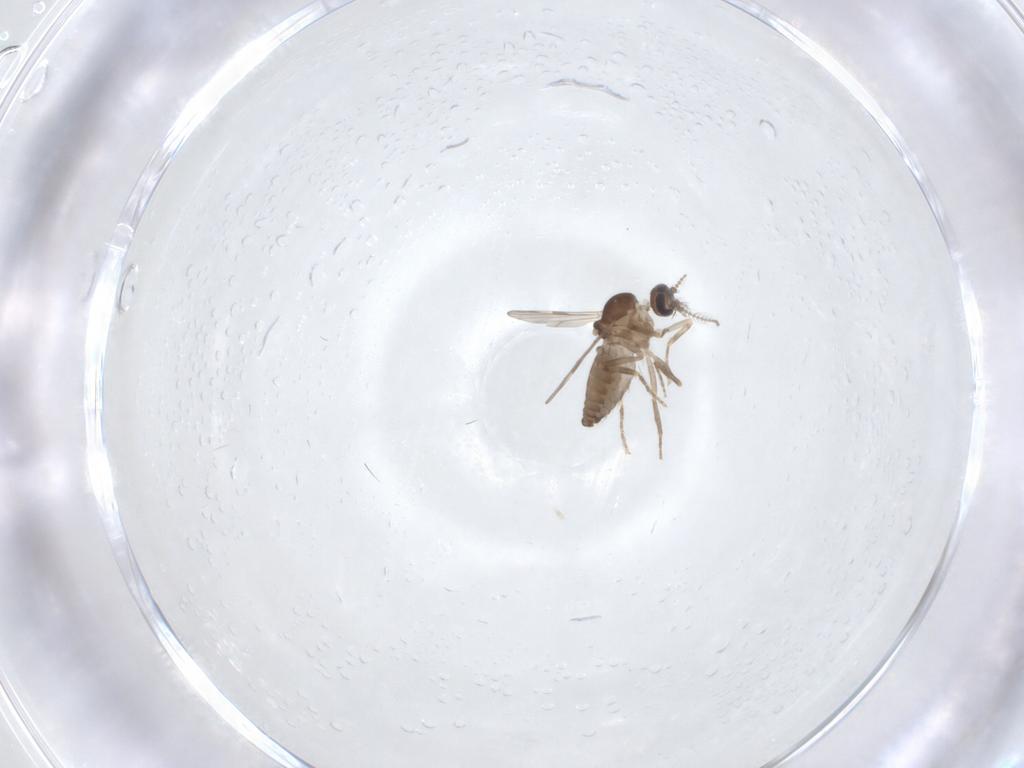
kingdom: Animalia
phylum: Arthropoda
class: Insecta
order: Diptera
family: Ceratopogonidae
